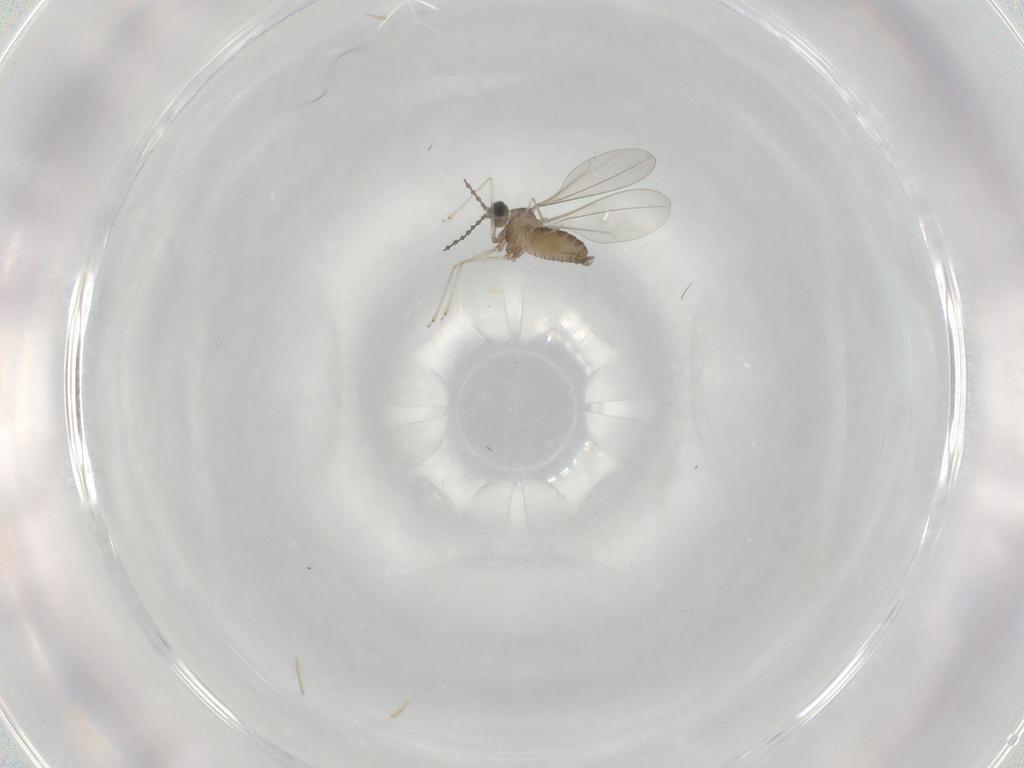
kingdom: Animalia
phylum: Arthropoda
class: Insecta
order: Diptera
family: Cecidomyiidae
